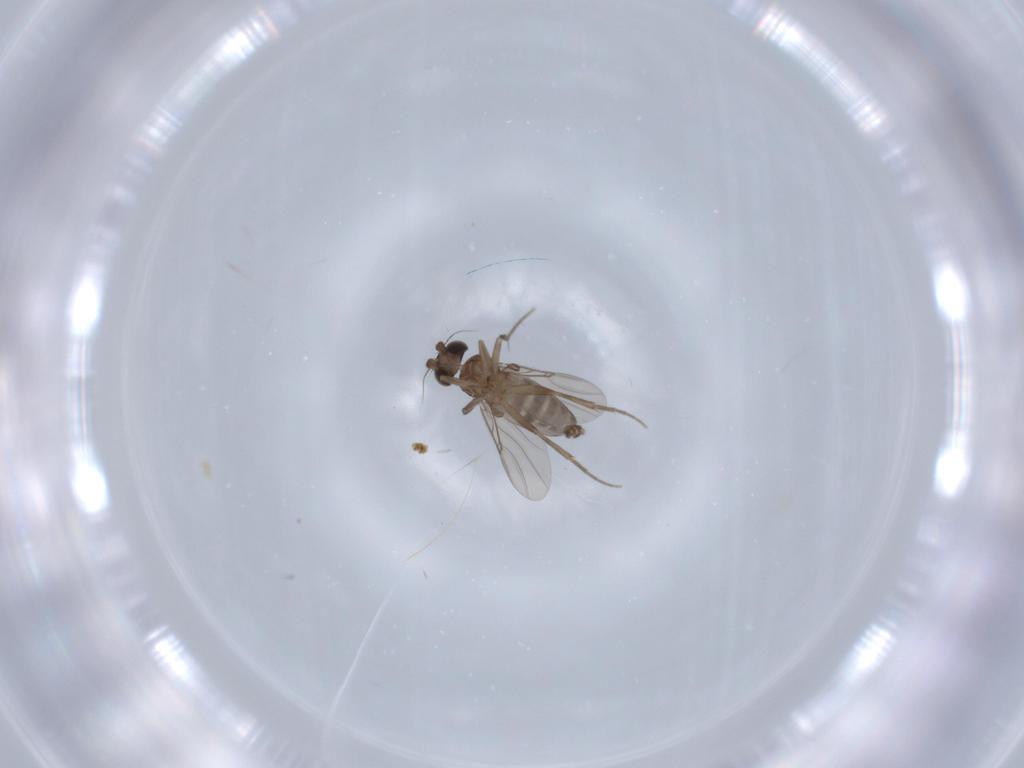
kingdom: Animalia
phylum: Arthropoda
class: Insecta
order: Diptera
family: Phoridae
